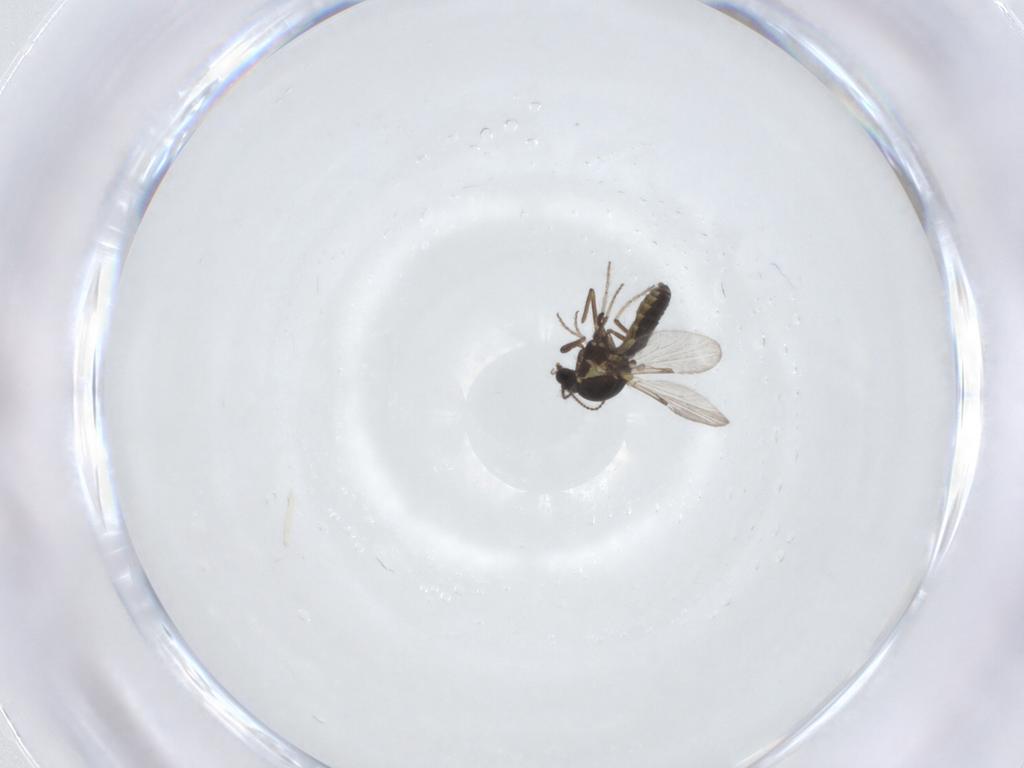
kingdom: Animalia
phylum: Arthropoda
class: Insecta
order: Diptera
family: Ceratopogonidae
